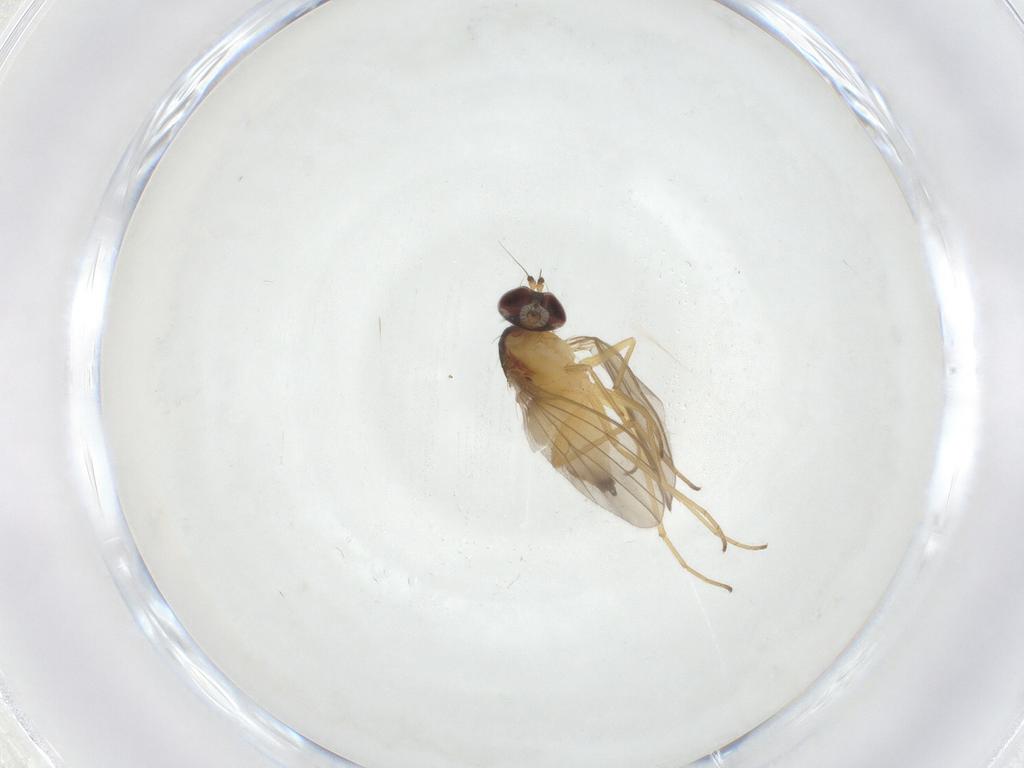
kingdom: Animalia
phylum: Arthropoda
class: Insecta
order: Diptera
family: Dolichopodidae
